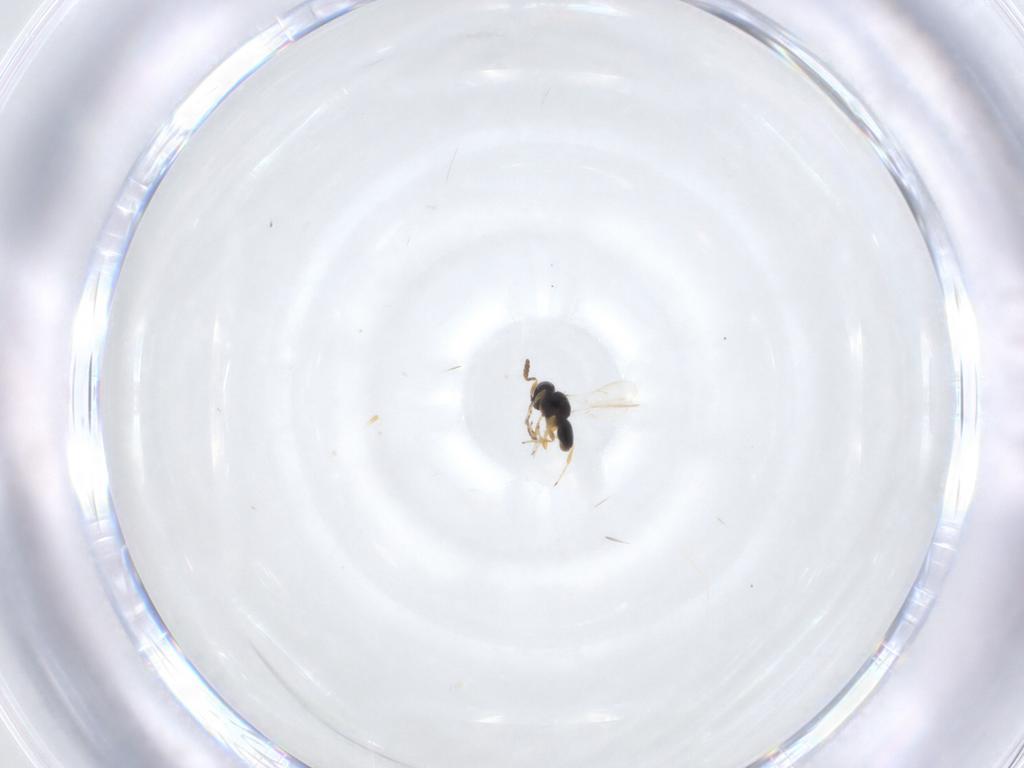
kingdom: Animalia
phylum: Arthropoda
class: Insecta
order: Hymenoptera
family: Scelionidae
